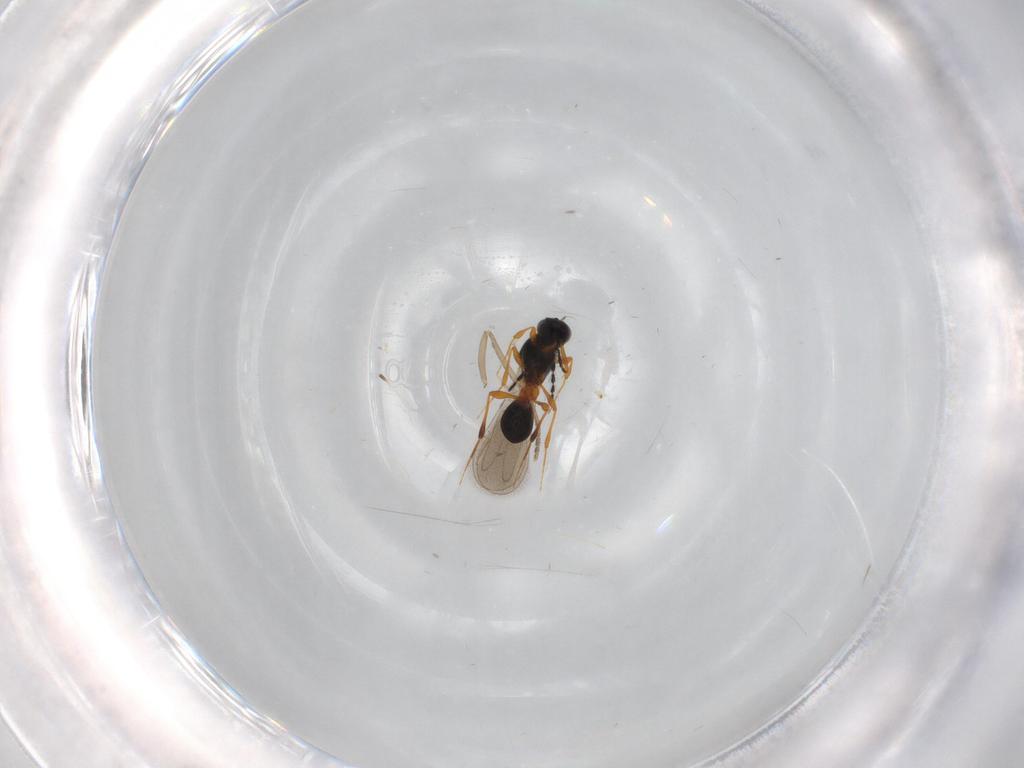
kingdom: Animalia
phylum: Arthropoda
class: Insecta
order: Hymenoptera
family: Platygastridae
